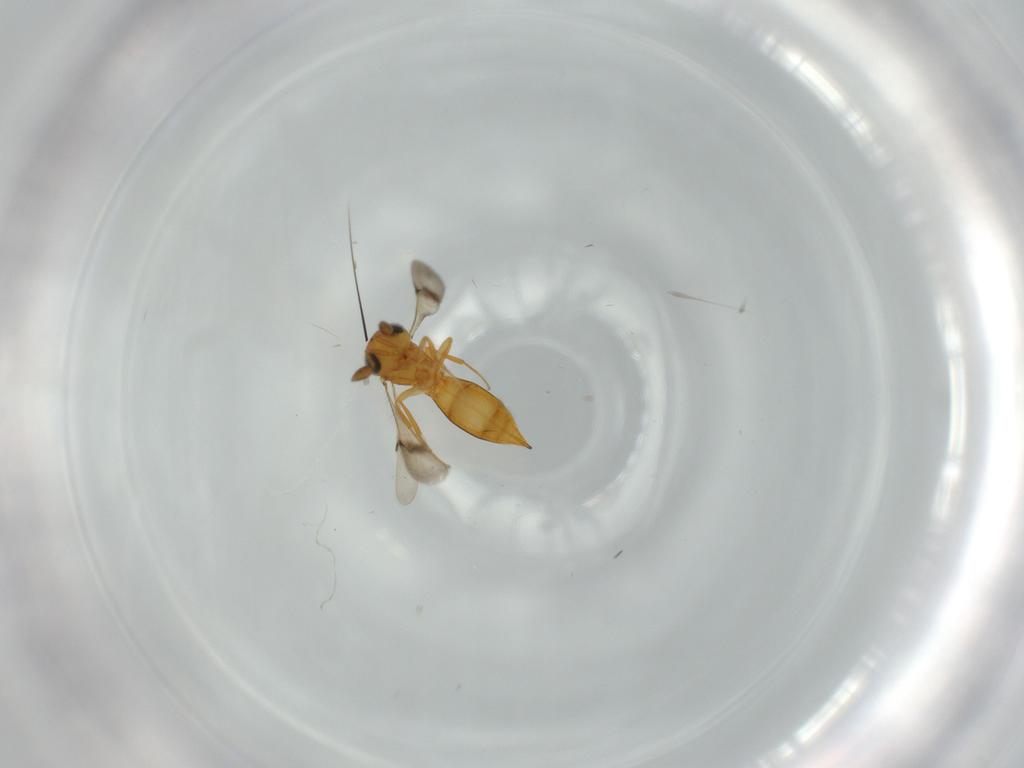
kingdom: Animalia
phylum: Arthropoda
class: Insecta
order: Hymenoptera
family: Scelionidae
